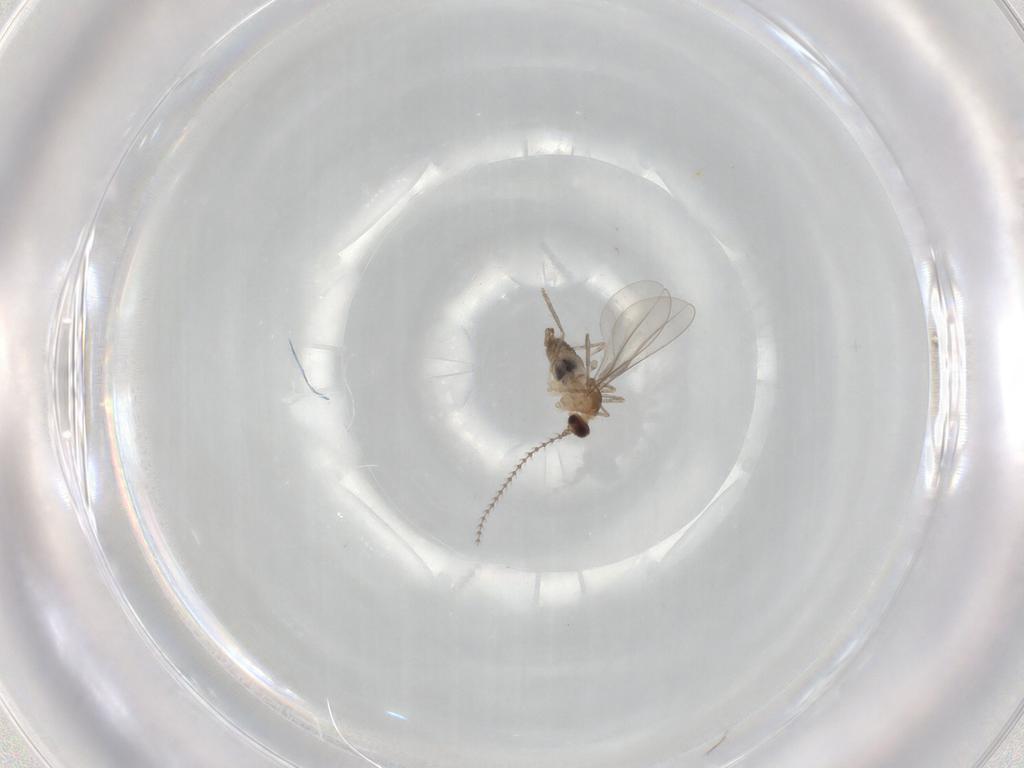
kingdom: Animalia
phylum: Arthropoda
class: Insecta
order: Diptera
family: Cecidomyiidae
